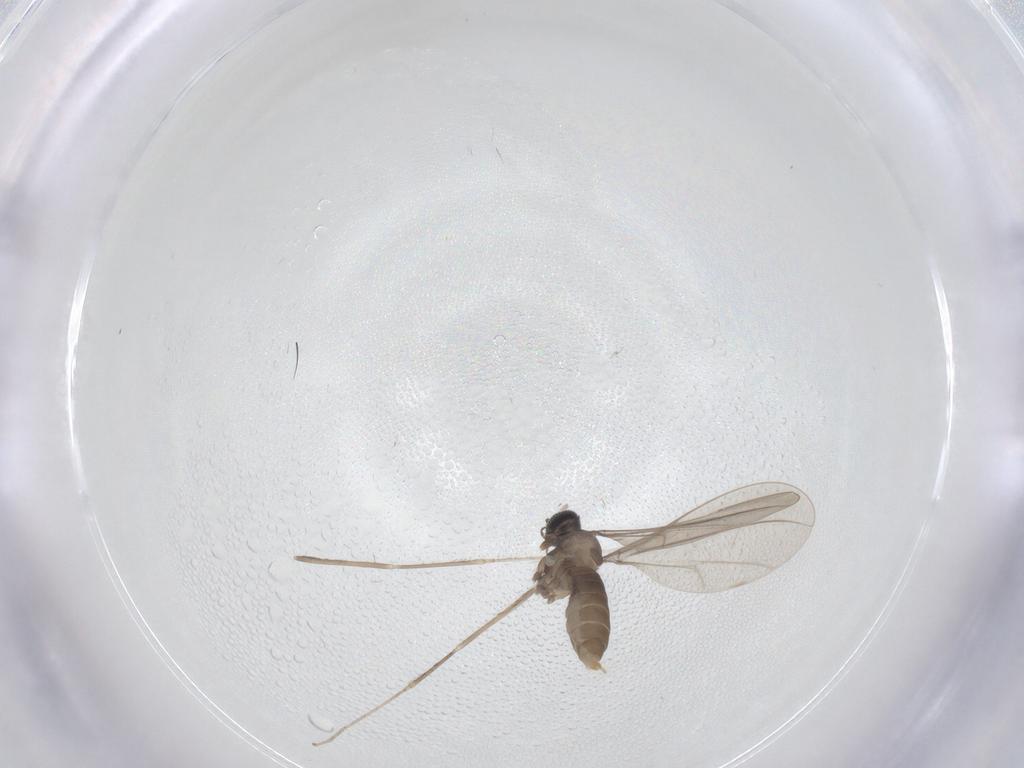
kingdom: Animalia
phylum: Arthropoda
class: Insecta
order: Diptera
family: Cecidomyiidae
